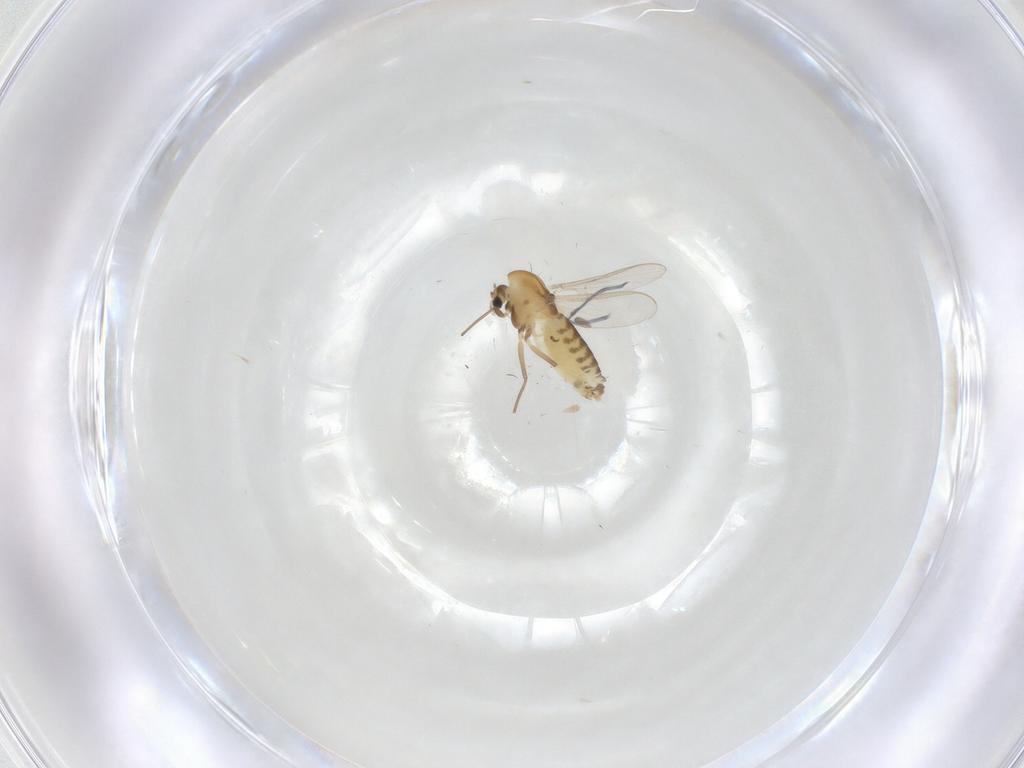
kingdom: Animalia
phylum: Arthropoda
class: Insecta
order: Diptera
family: Chironomidae
